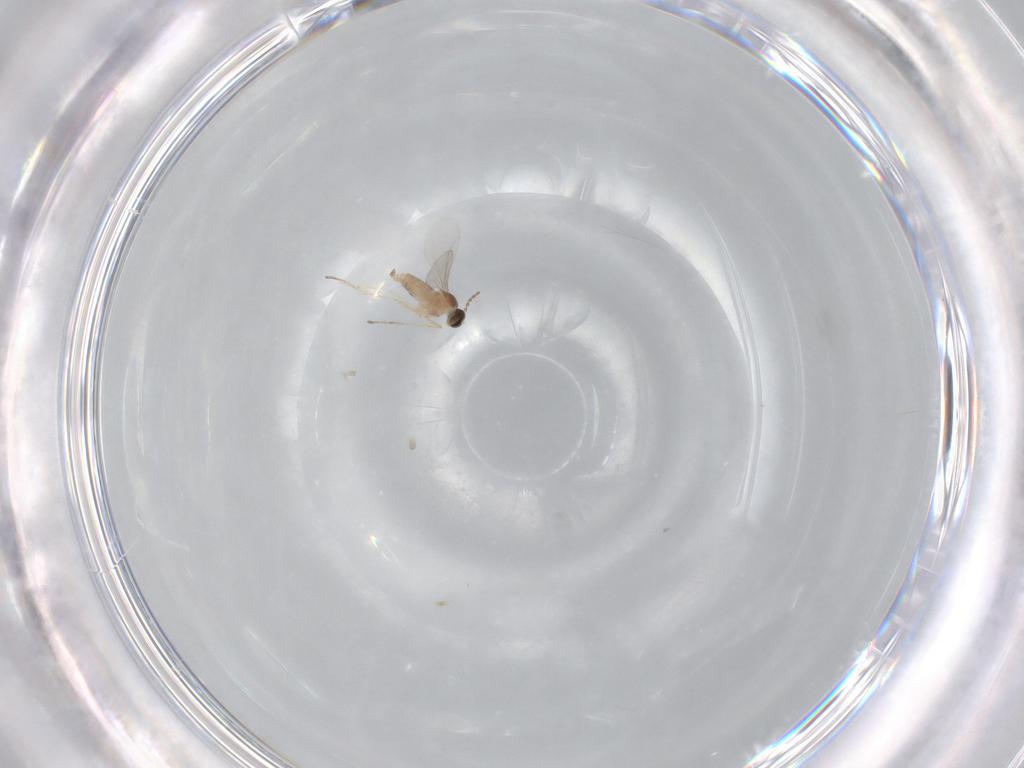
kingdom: Animalia
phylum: Arthropoda
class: Insecta
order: Diptera
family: Cecidomyiidae
